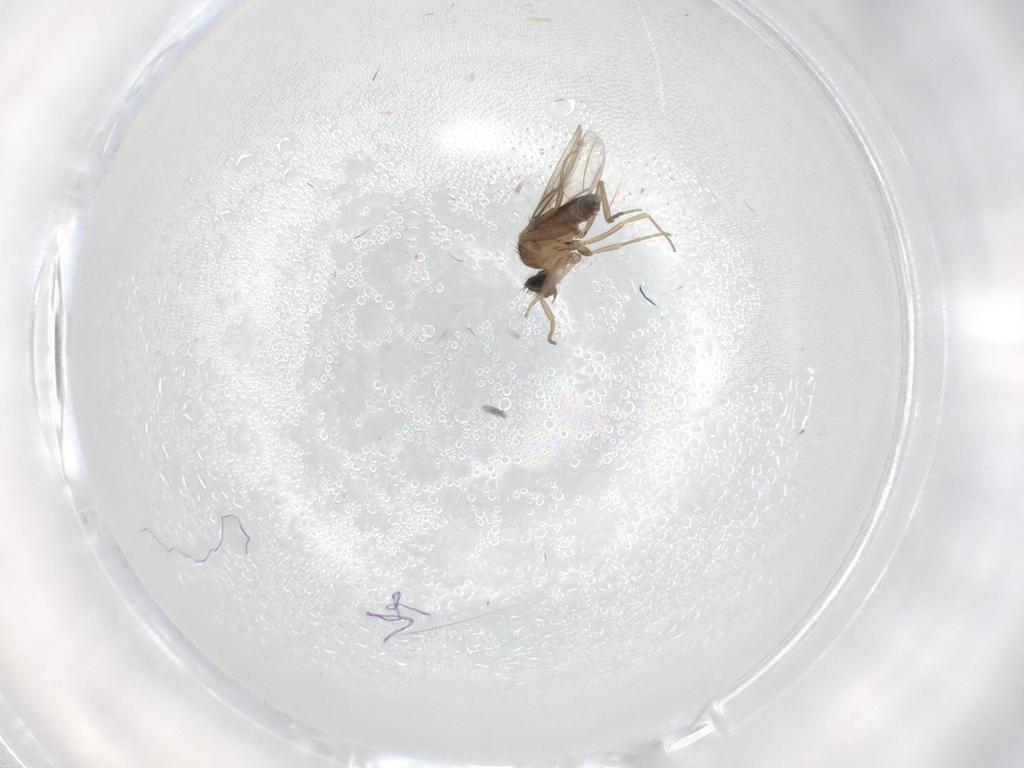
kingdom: Animalia
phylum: Arthropoda
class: Insecta
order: Diptera
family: Phoridae
